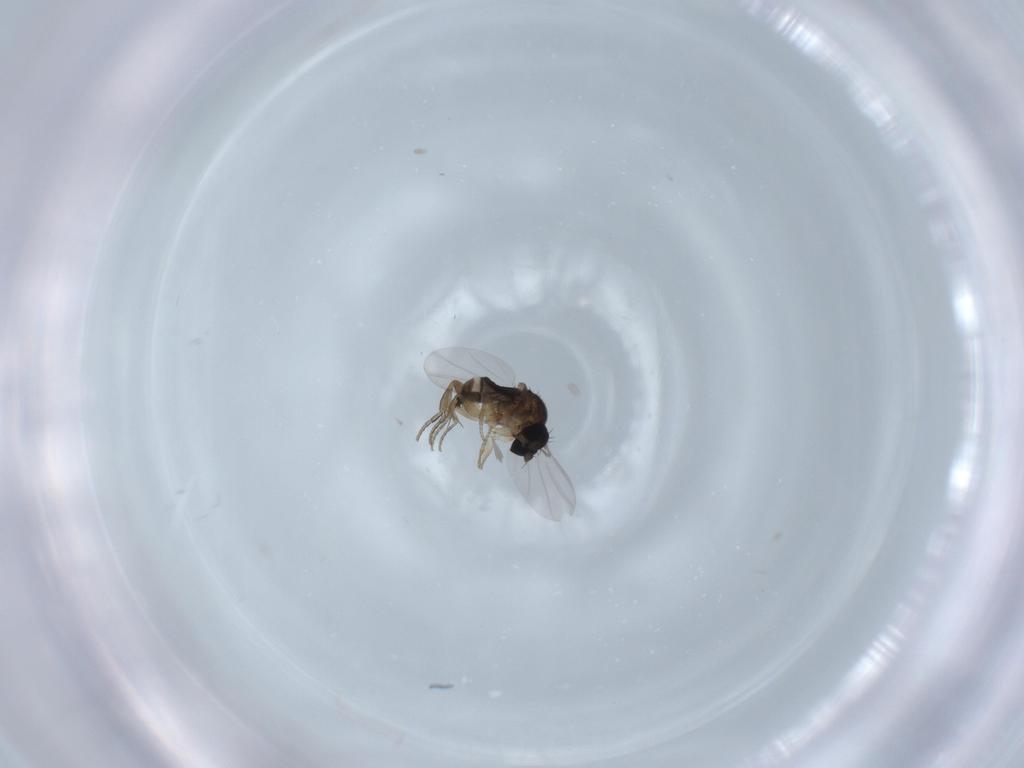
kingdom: Animalia
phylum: Arthropoda
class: Insecta
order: Diptera
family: Phoridae
